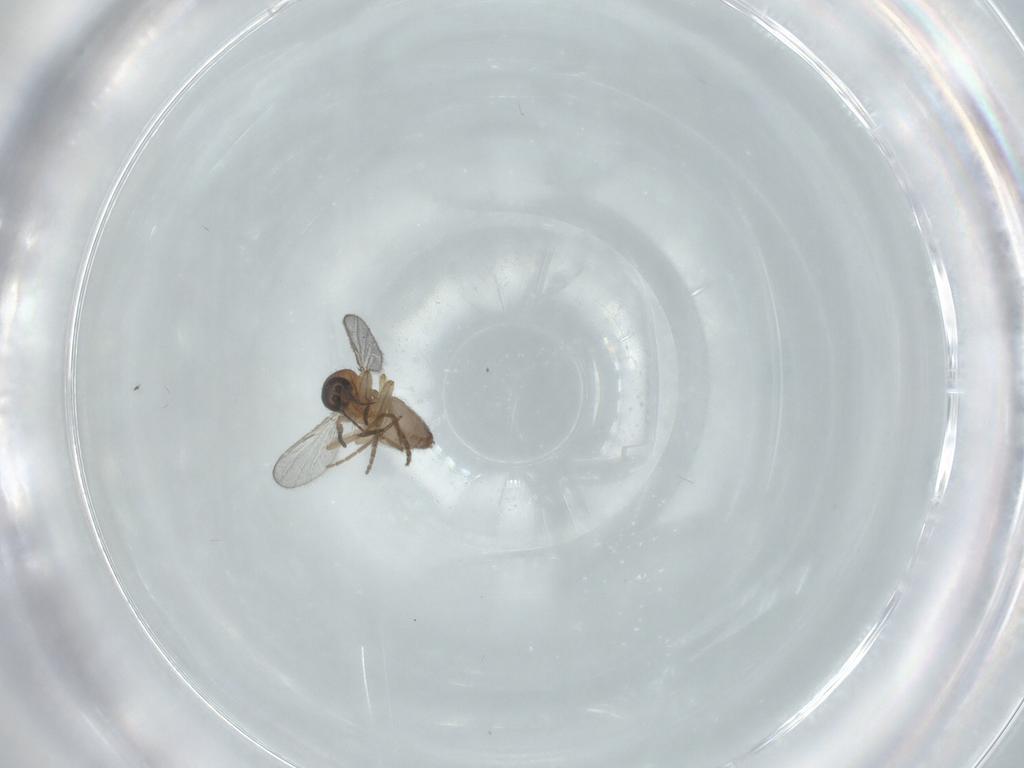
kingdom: Animalia
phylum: Arthropoda
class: Insecta
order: Diptera
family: Ceratopogonidae
